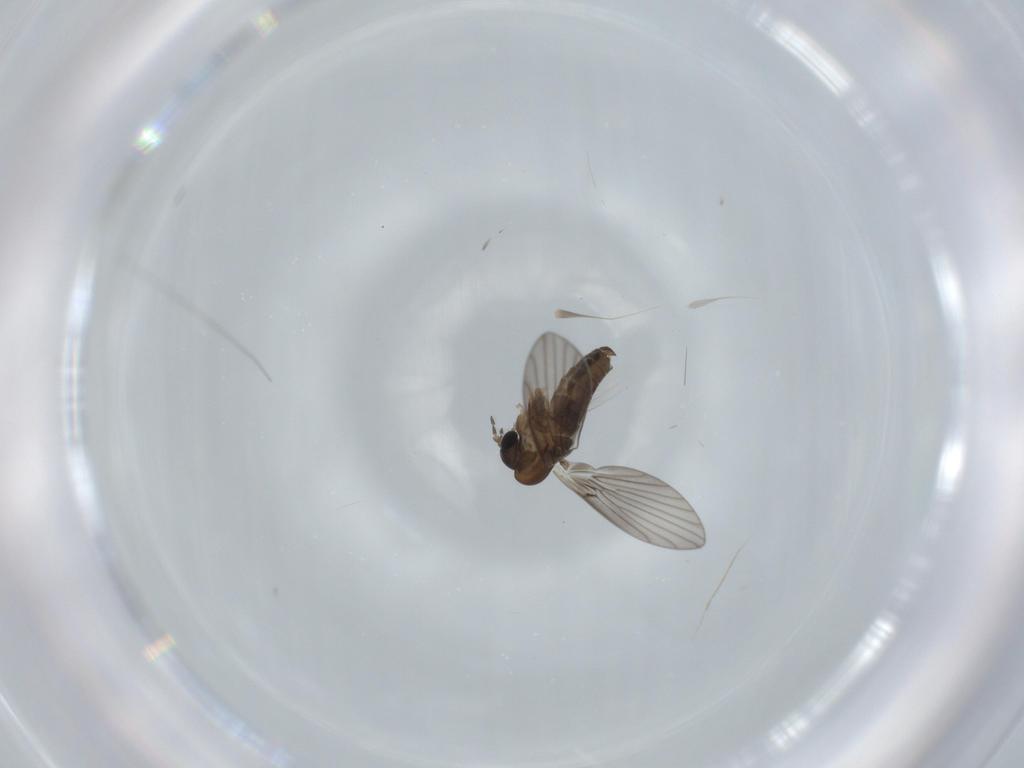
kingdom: Animalia
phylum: Arthropoda
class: Insecta
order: Diptera
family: Psychodidae
